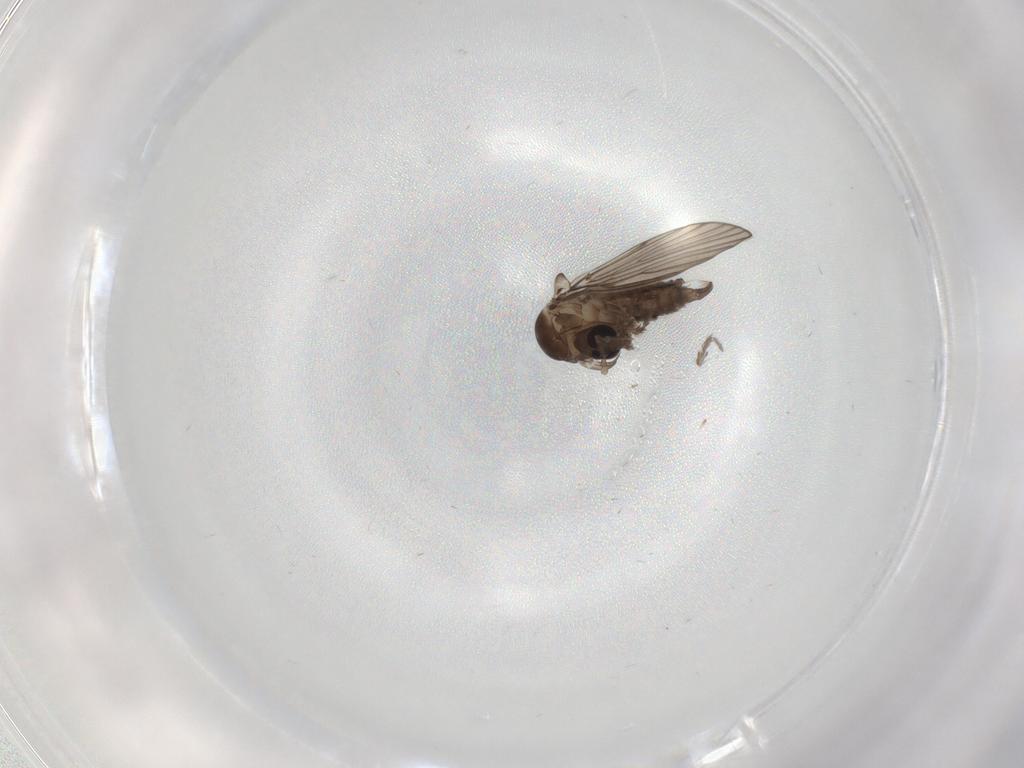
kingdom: Animalia
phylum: Arthropoda
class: Insecta
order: Diptera
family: Psychodidae
